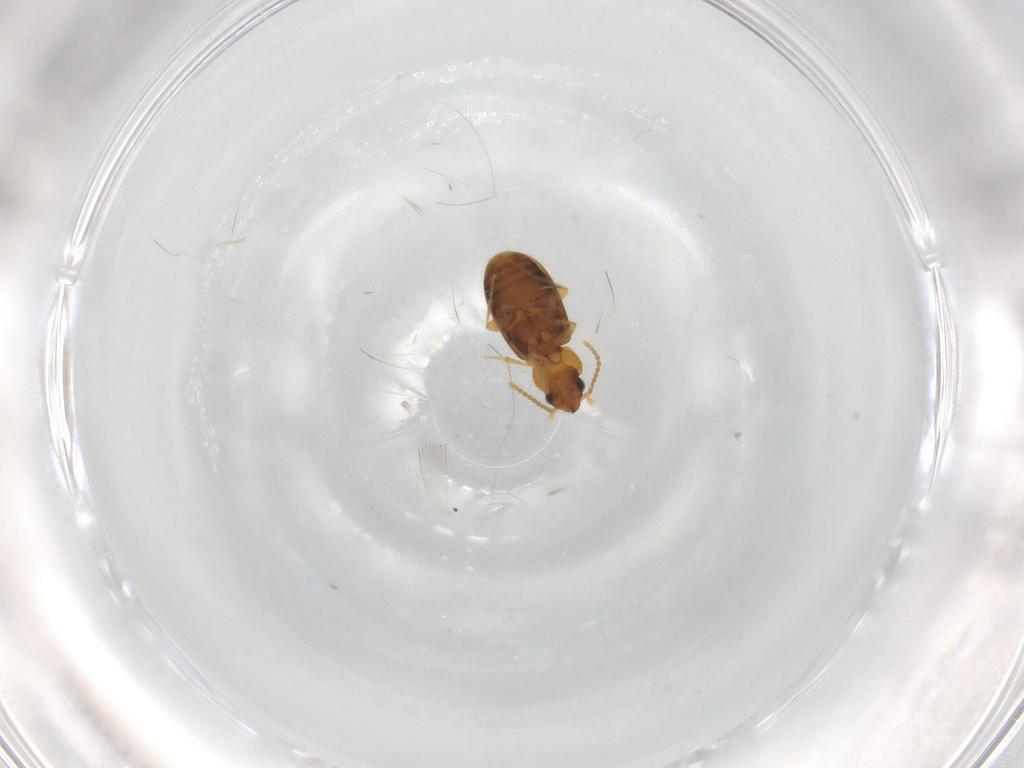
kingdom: Animalia
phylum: Arthropoda
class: Insecta
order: Coleoptera
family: Carabidae
